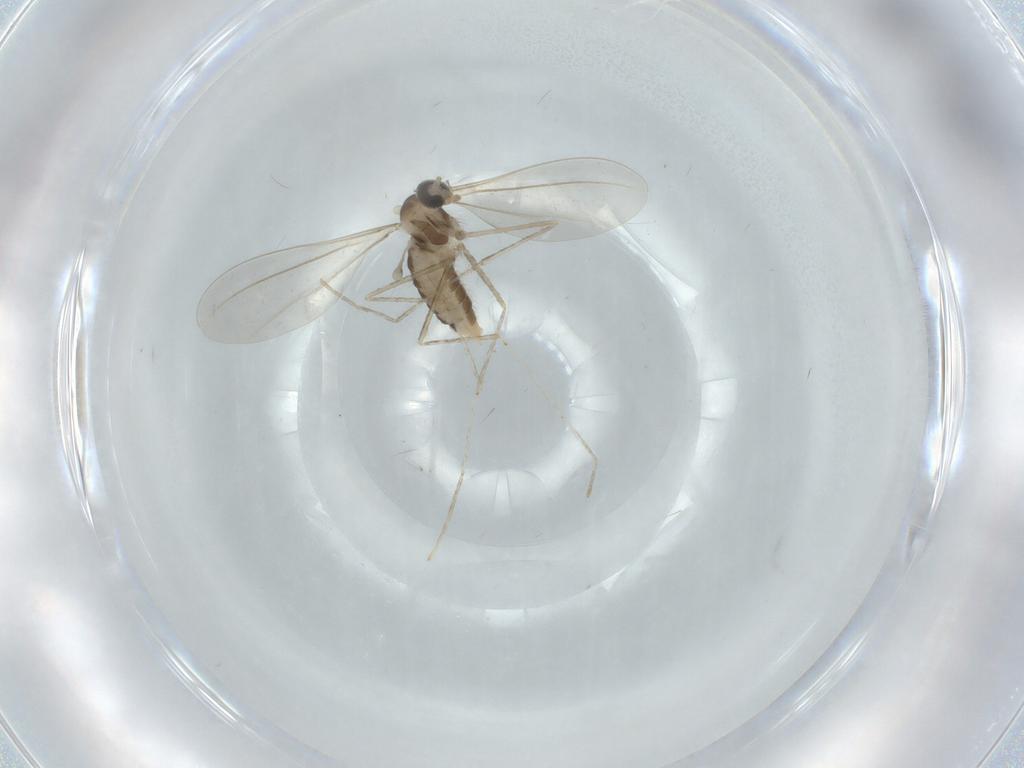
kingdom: Animalia
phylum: Arthropoda
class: Insecta
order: Diptera
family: Cecidomyiidae
